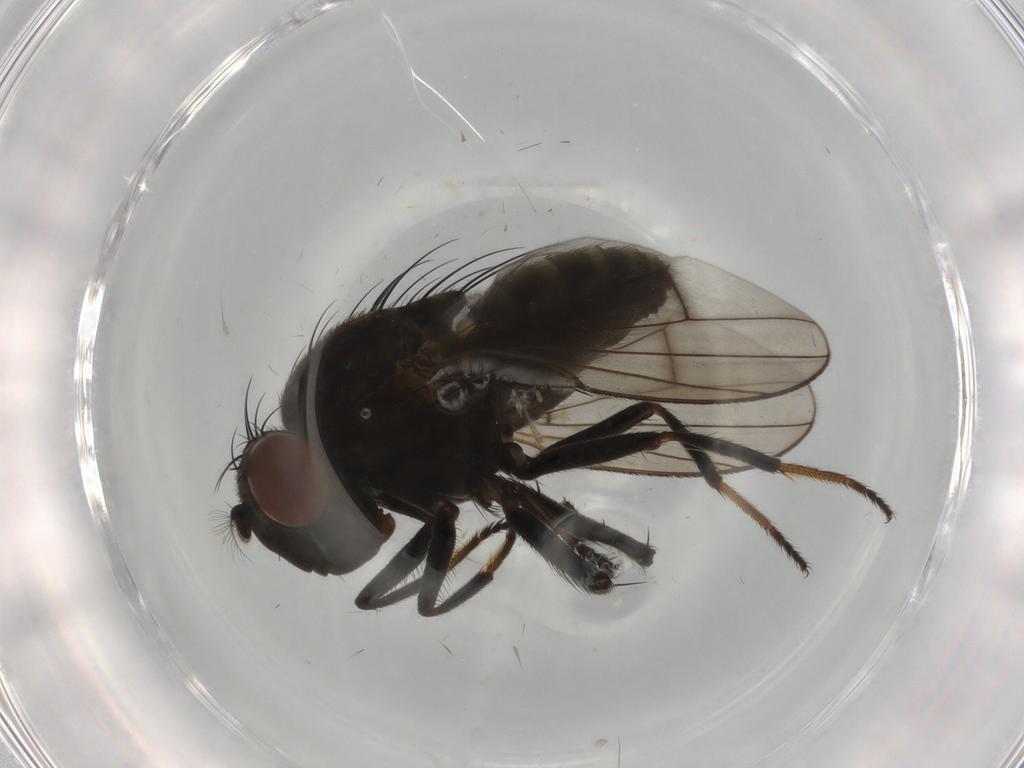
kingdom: Animalia
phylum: Arthropoda
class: Insecta
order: Diptera
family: Ephydridae
